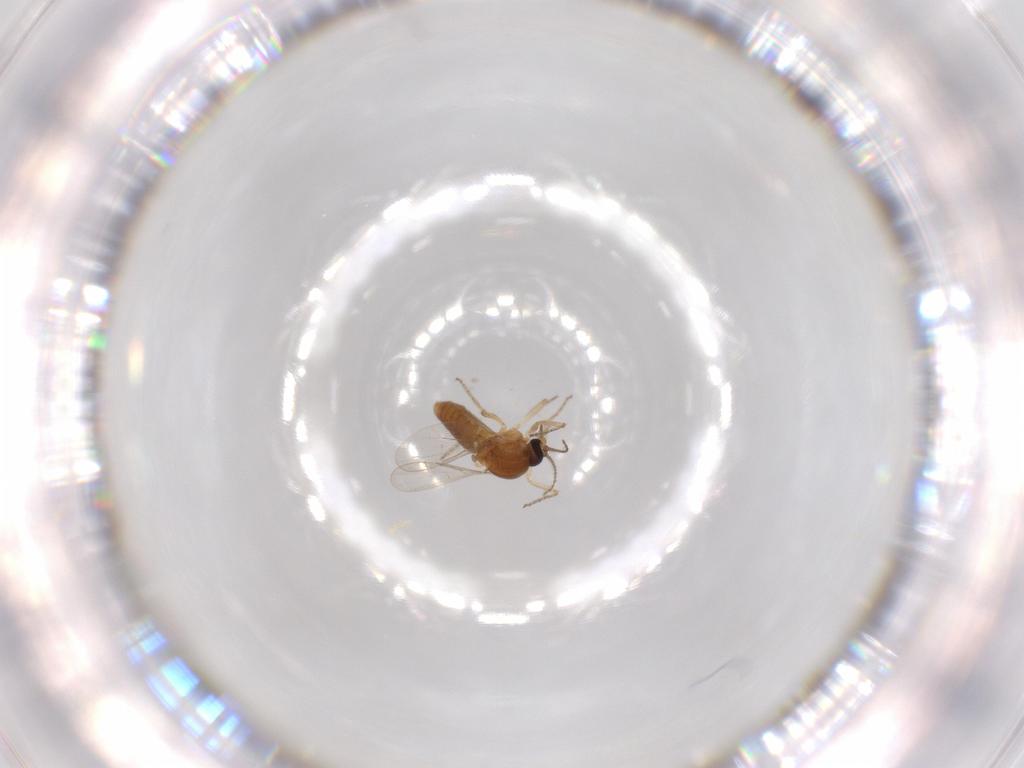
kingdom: Animalia
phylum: Arthropoda
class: Insecta
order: Diptera
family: Ceratopogonidae
